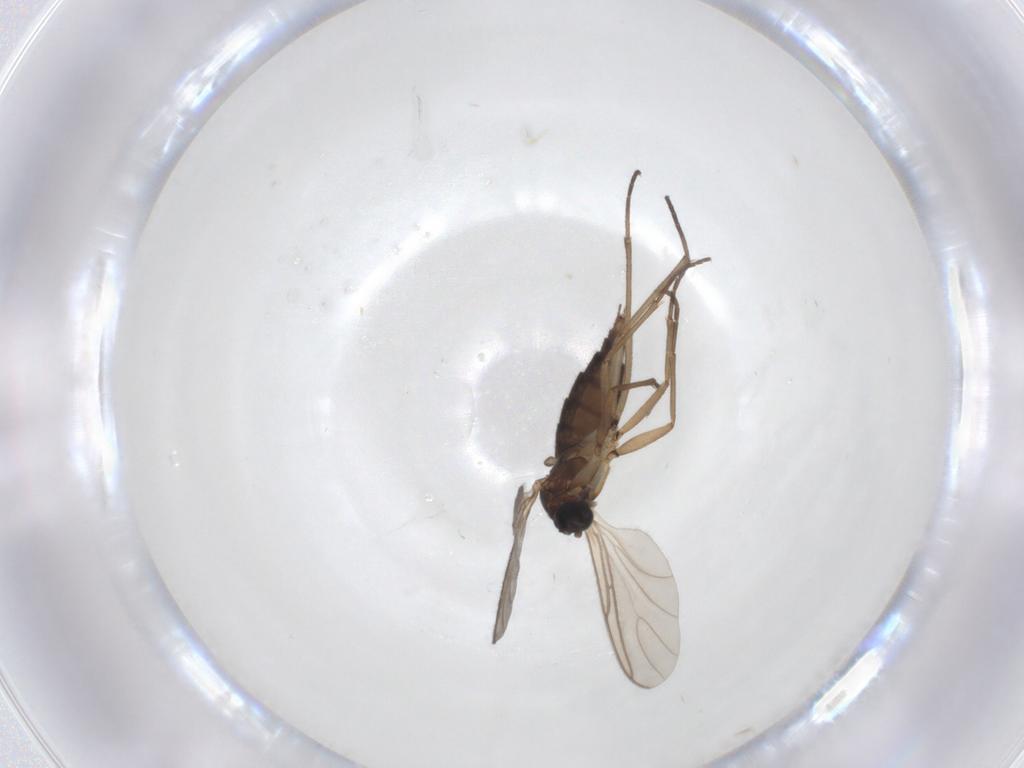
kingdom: Animalia
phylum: Arthropoda
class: Insecta
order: Diptera
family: Sciaridae
